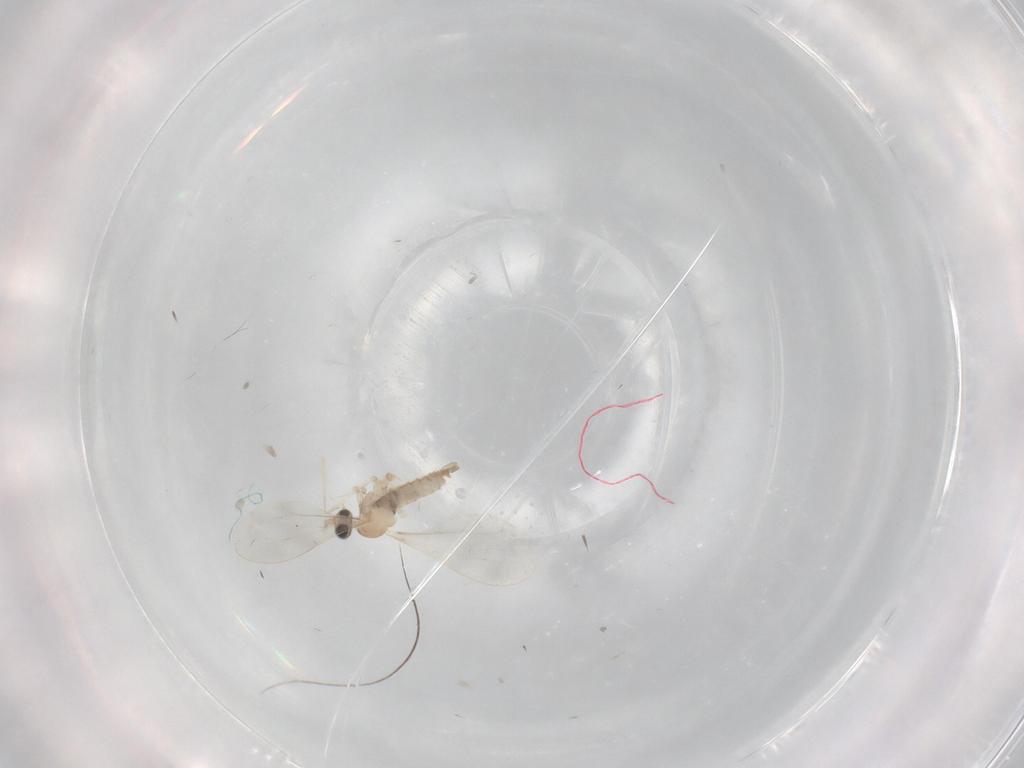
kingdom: Animalia
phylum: Arthropoda
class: Insecta
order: Diptera
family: Cecidomyiidae
